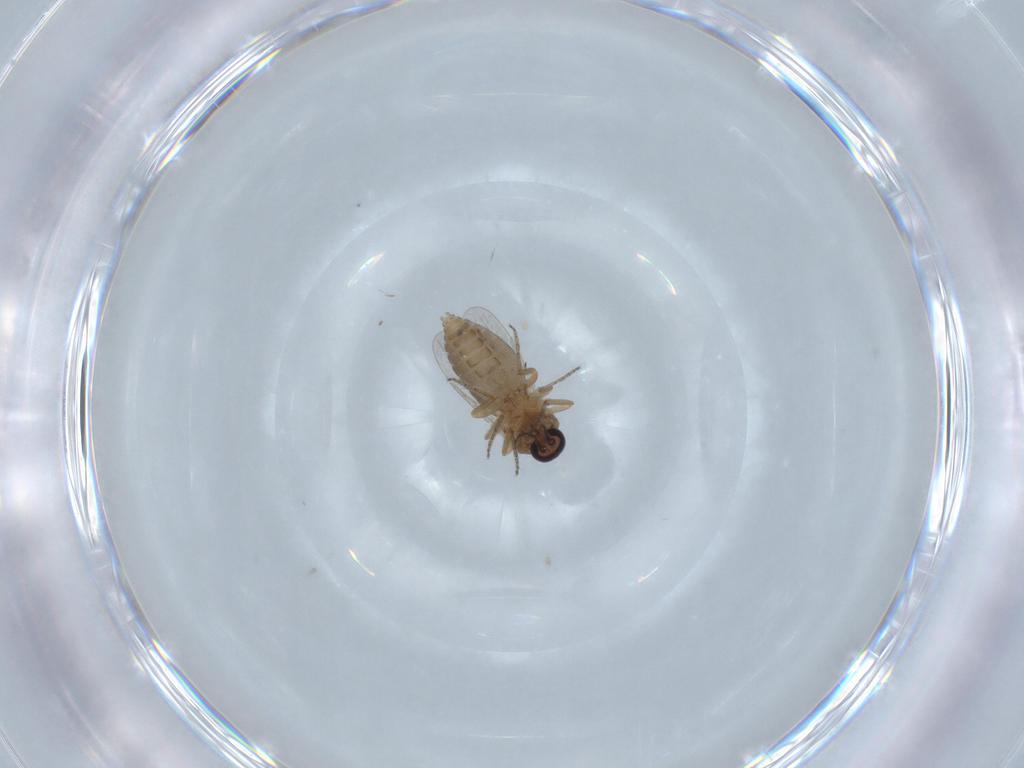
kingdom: Animalia
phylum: Arthropoda
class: Insecta
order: Diptera
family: Ceratopogonidae
